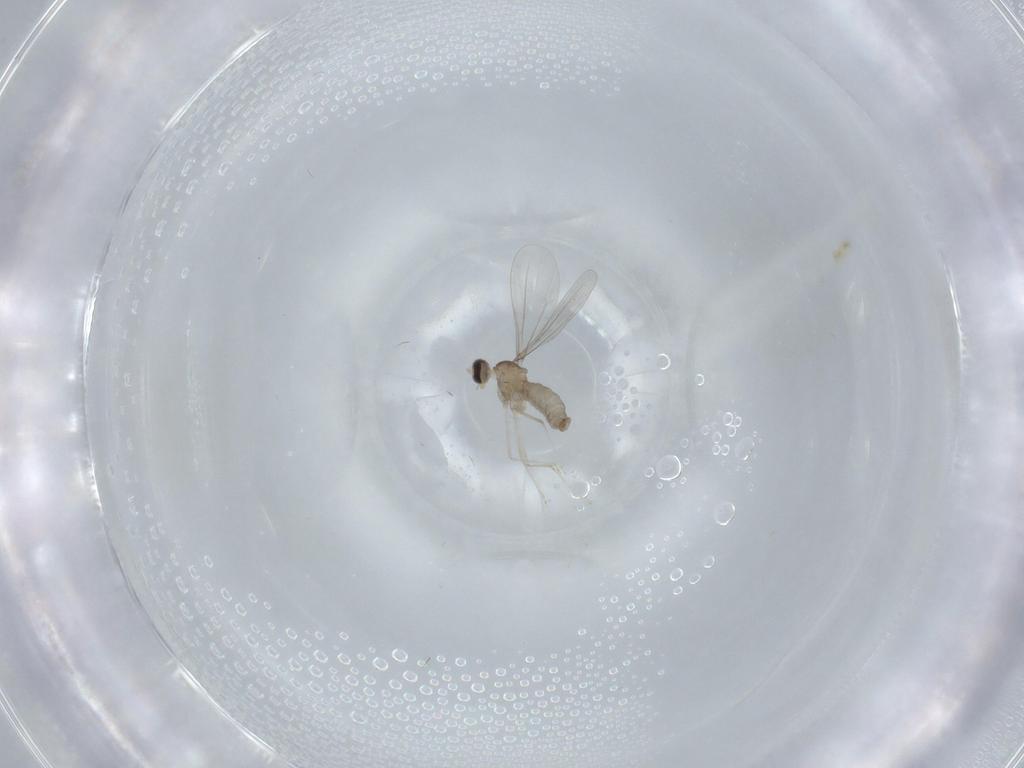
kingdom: Animalia
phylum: Arthropoda
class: Insecta
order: Diptera
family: Cecidomyiidae
